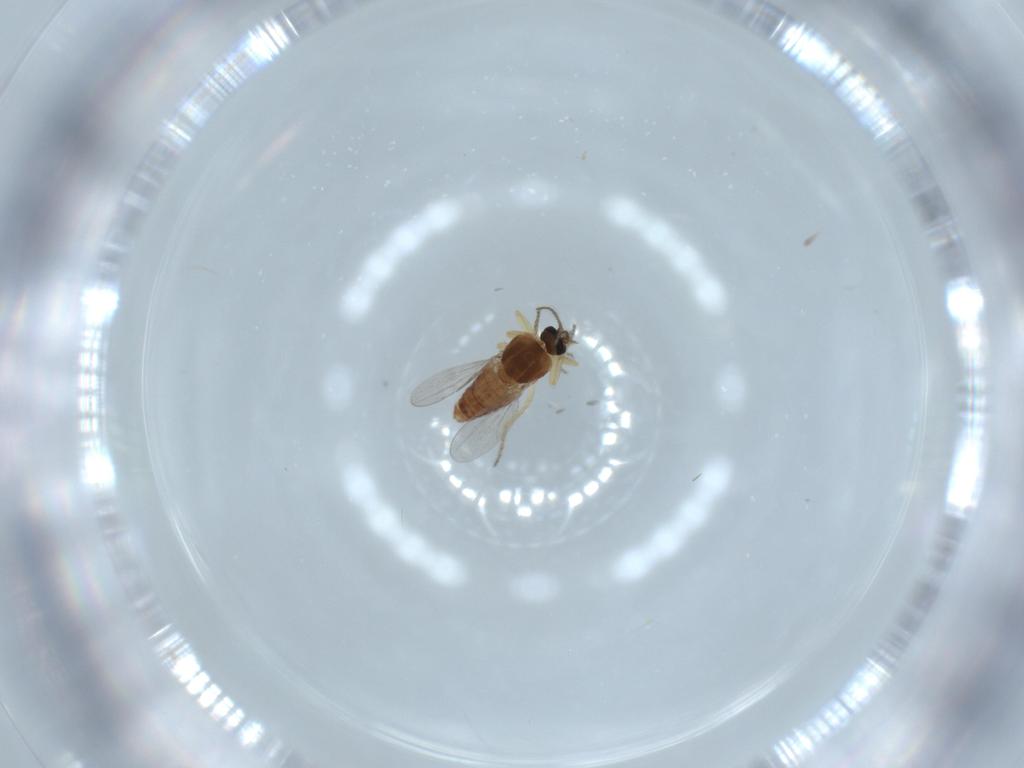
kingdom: Animalia
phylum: Arthropoda
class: Insecta
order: Diptera
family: Ceratopogonidae
